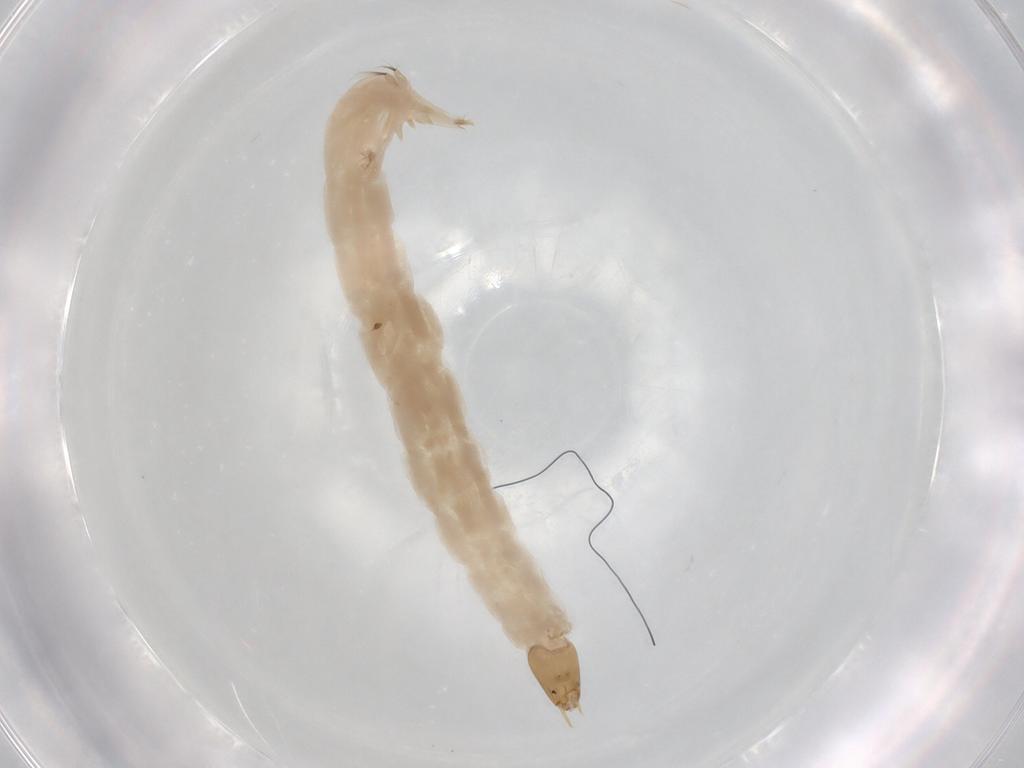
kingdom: Animalia
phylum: Arthropoda
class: Insecta
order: Diptera
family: Chironomidae
